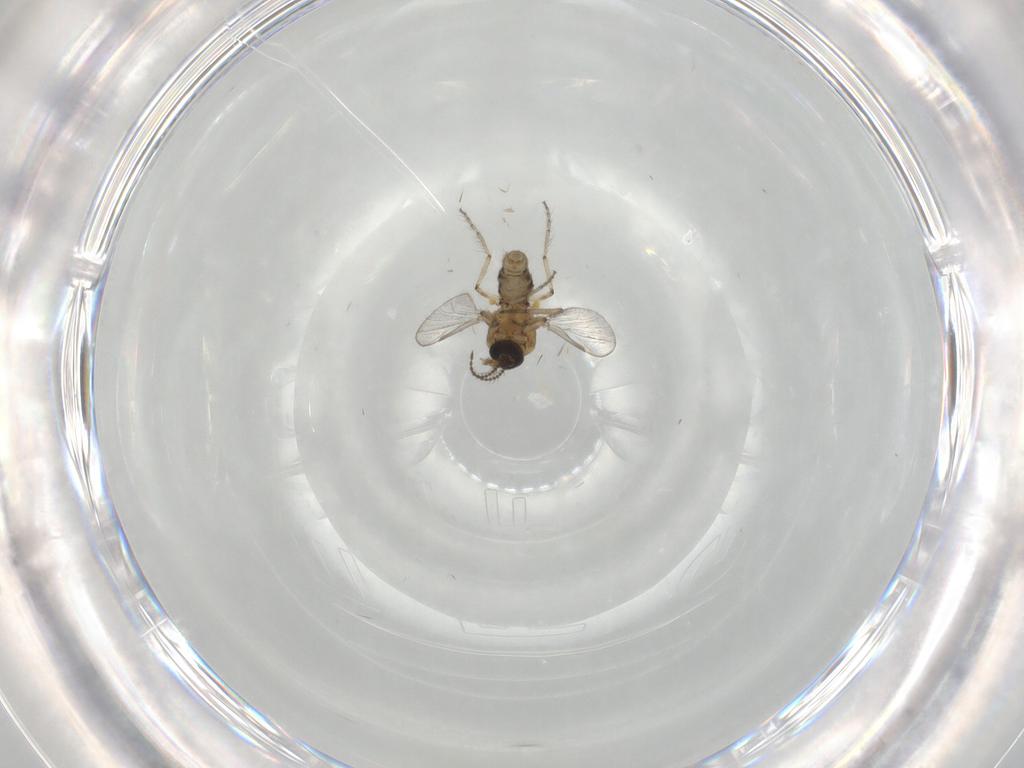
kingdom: Animalia
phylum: Arthropoda
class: Insecta
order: Diptera
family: Ceratopogonidae
